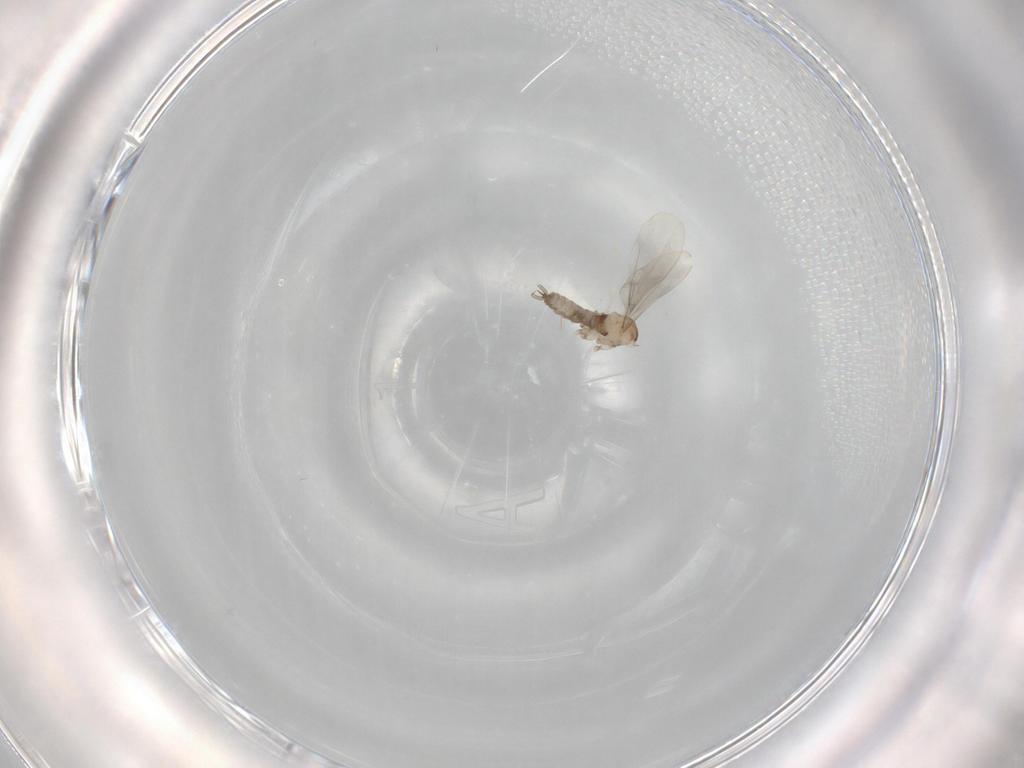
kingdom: Animalia
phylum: Arthropoda
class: Insecta
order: Diptera
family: Cecidomyiidae
